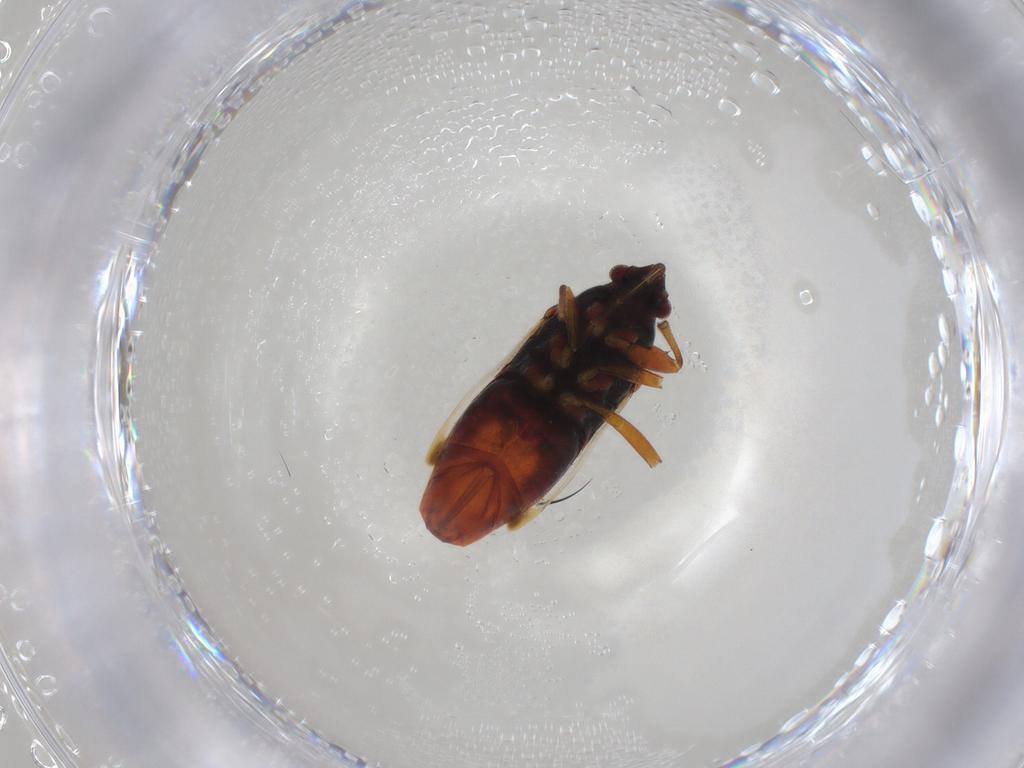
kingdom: Animalia
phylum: Arthropoda
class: Insecta
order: Hemiptera
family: Rhyparochromidae
